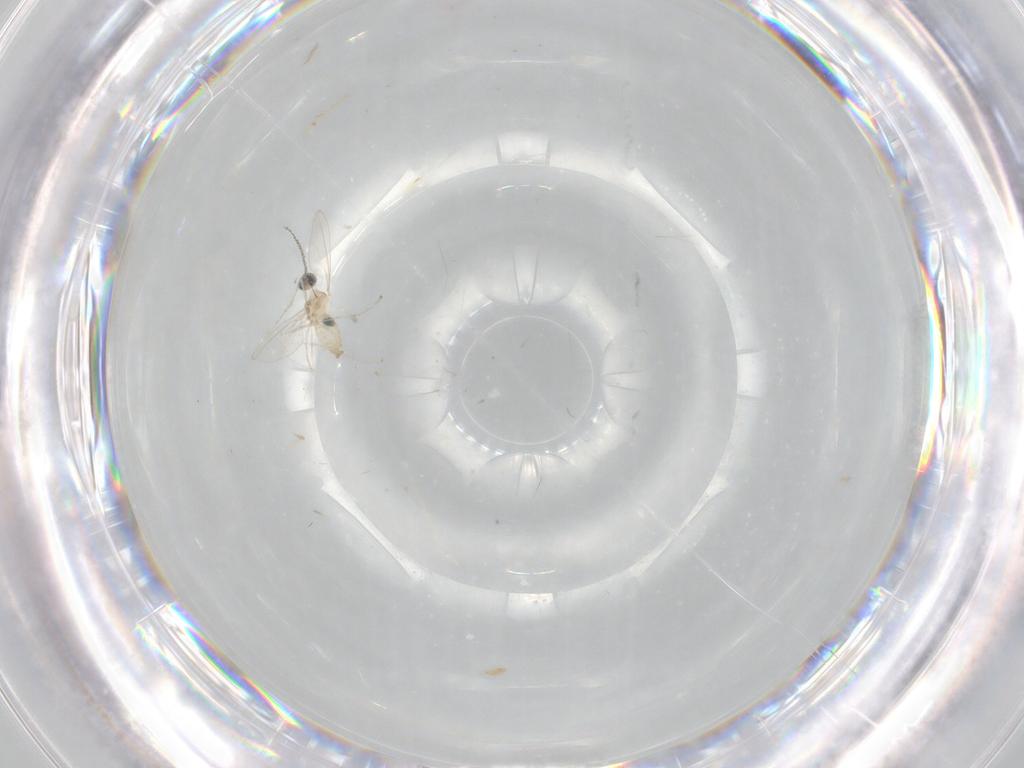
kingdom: Animalia
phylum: Arthropoda
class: Insecta
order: Diptera
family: Cecidomyiidae
